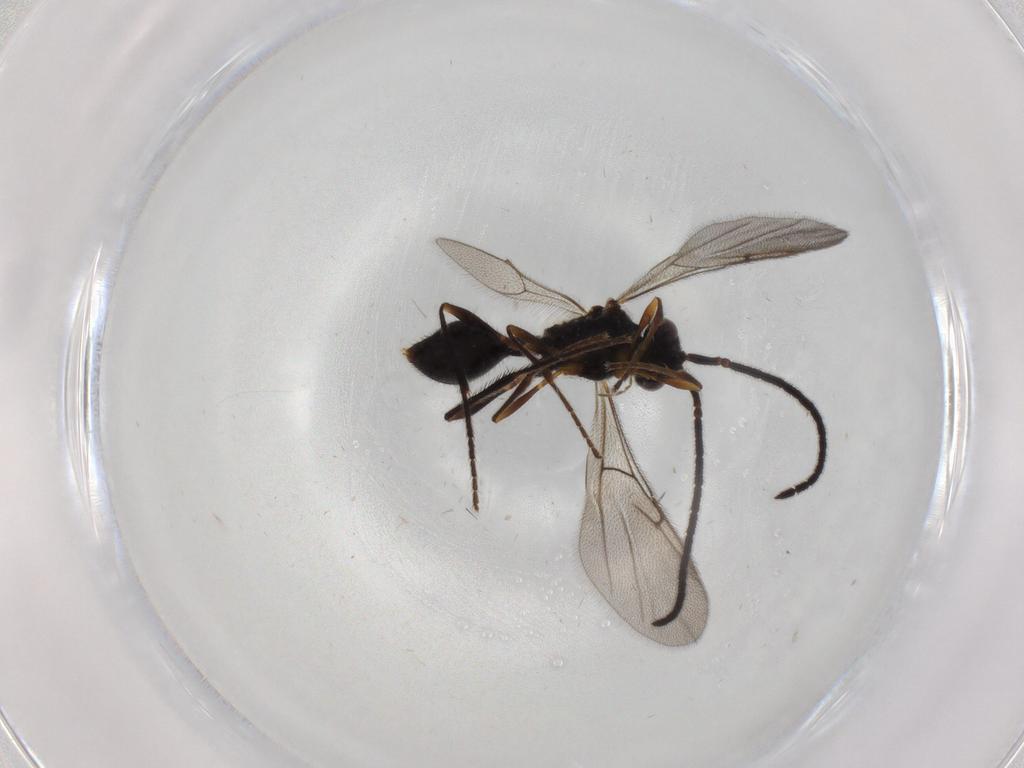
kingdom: Animalia
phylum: Arthropoda
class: Insecta
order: Hymenoptera
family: Diapriidae
